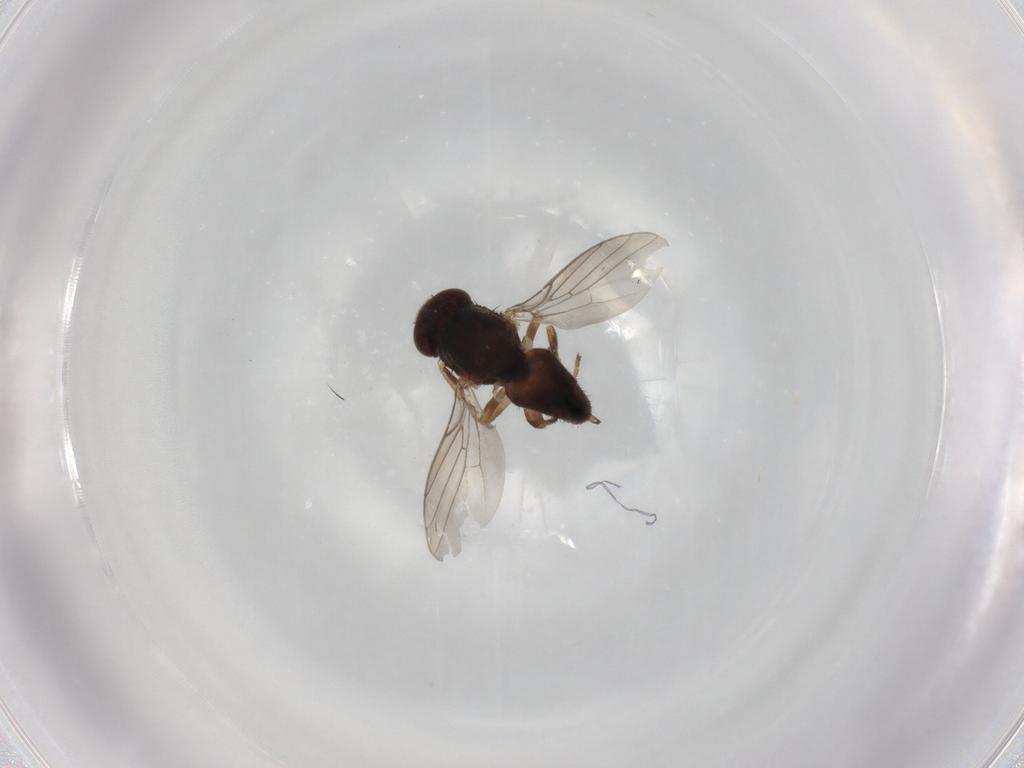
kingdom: Animalia
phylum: Arthropoda
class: Insecta
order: Diptera
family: Chloropidae
